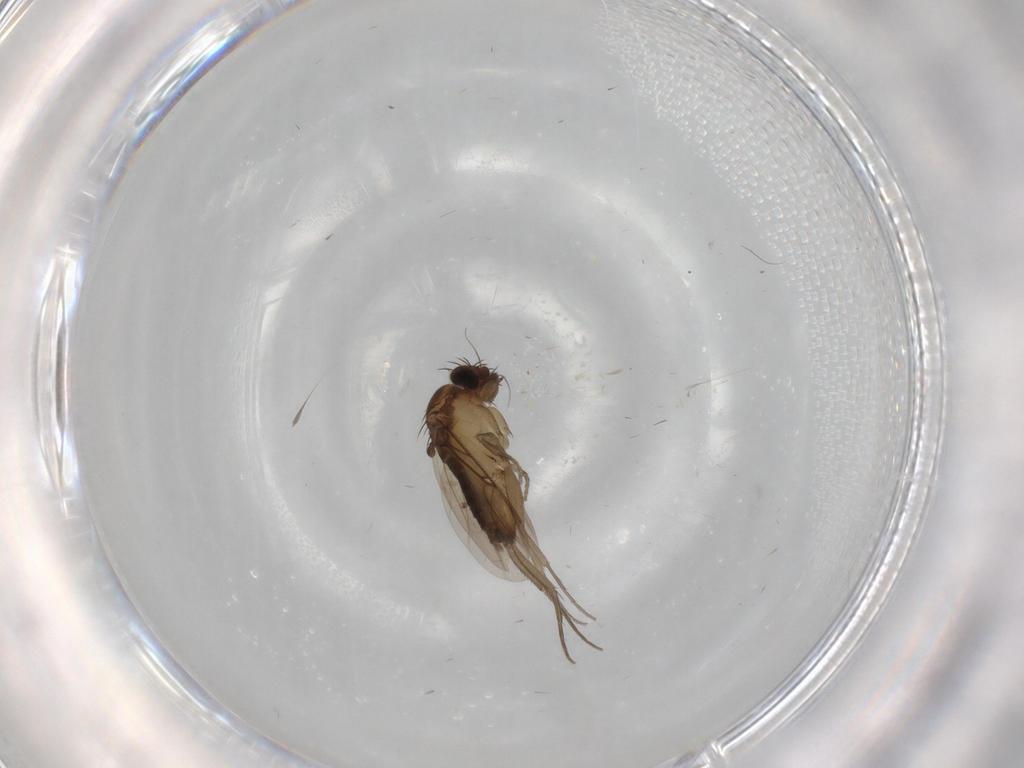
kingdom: Animalia
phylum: Arthropoda
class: Insecta
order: Diptera
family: Phoridae
